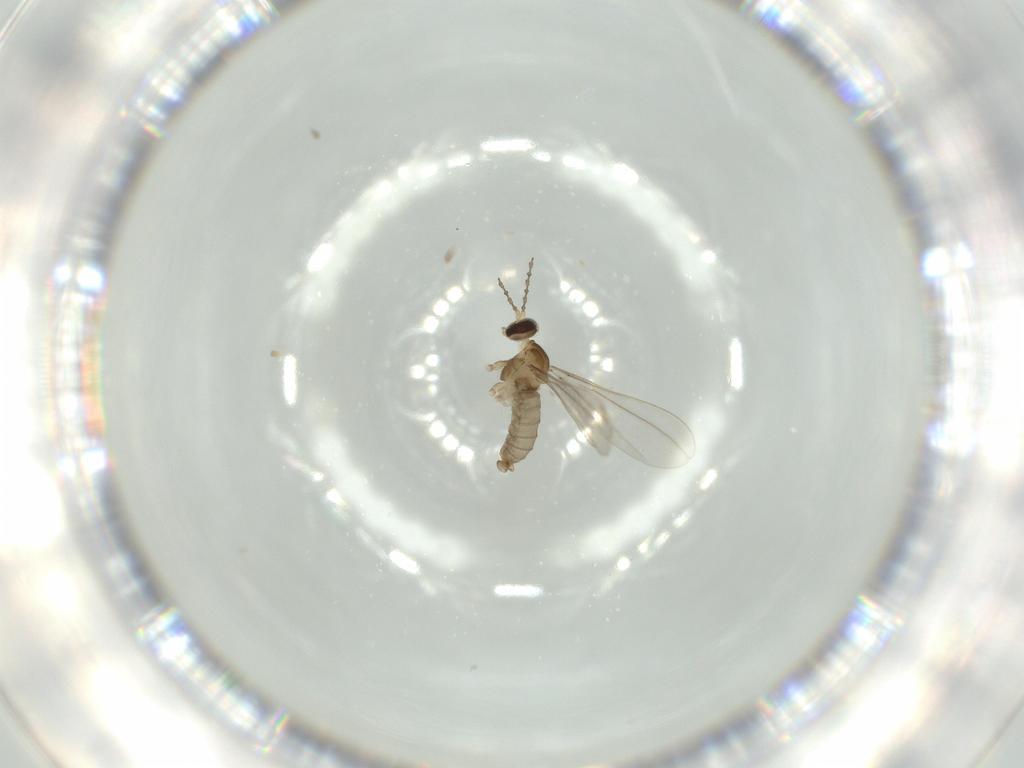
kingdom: Animalia
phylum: Arthropoda
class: Insecta
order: Diptera
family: Cecidomyiidae
